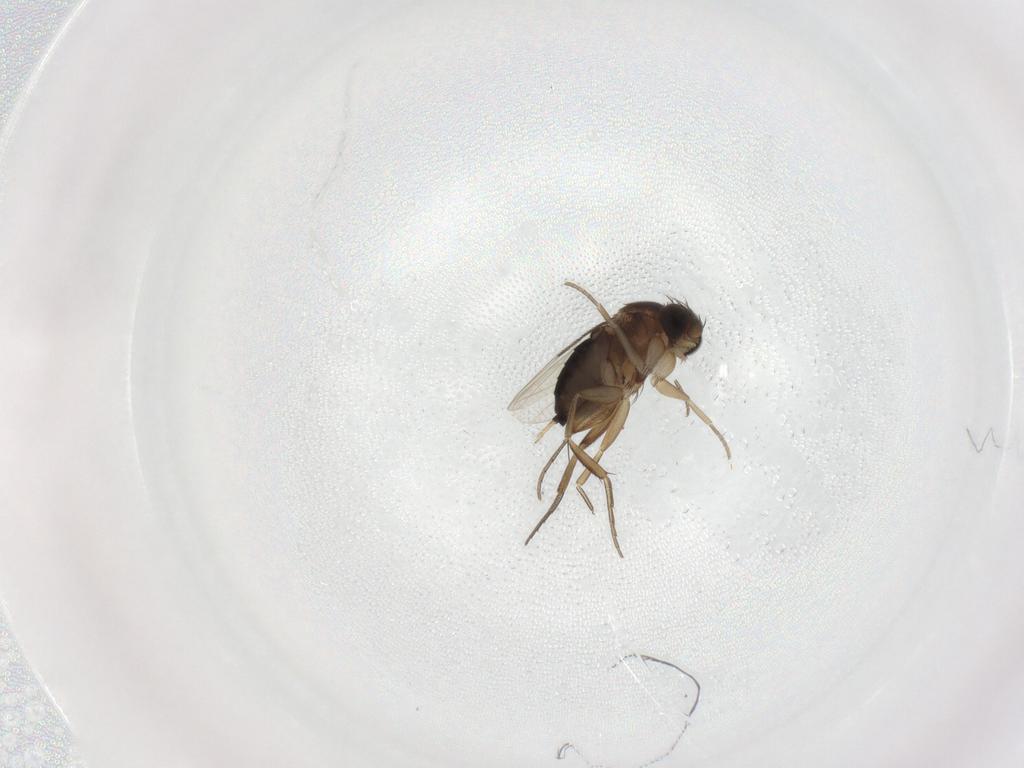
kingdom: Animalia
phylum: Arthropoda
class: Insecta
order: Diptera
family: Phoridae
